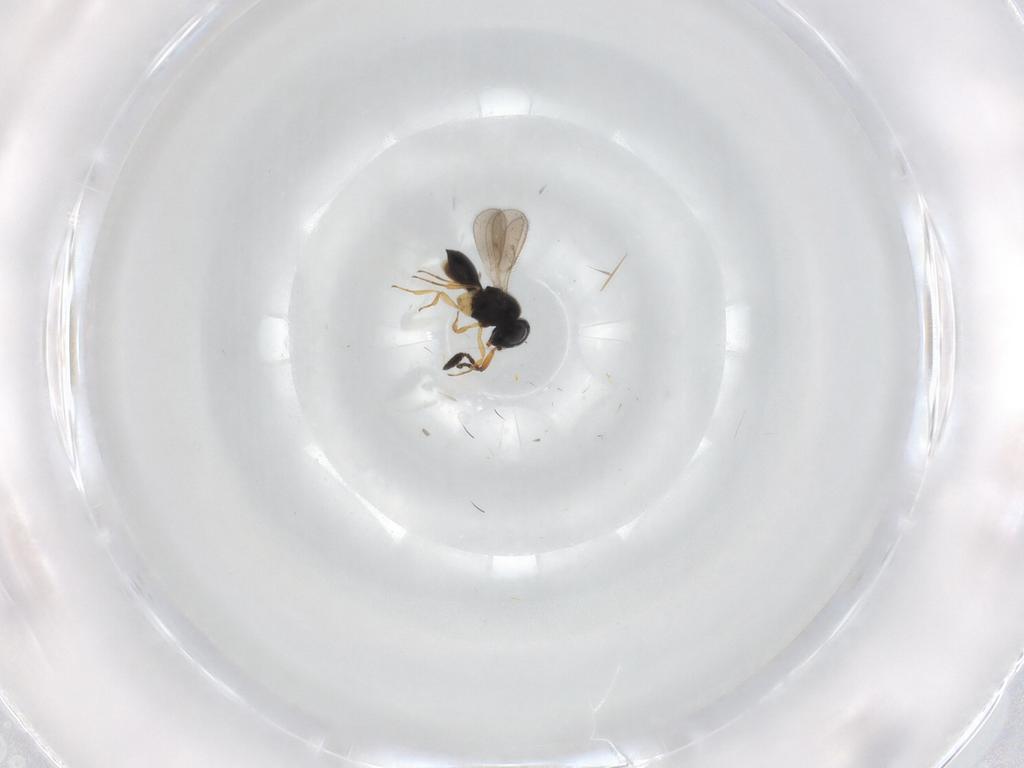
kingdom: Animalia
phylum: Arthropoda
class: Insecta
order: Hymenoptera
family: Scelionidae
